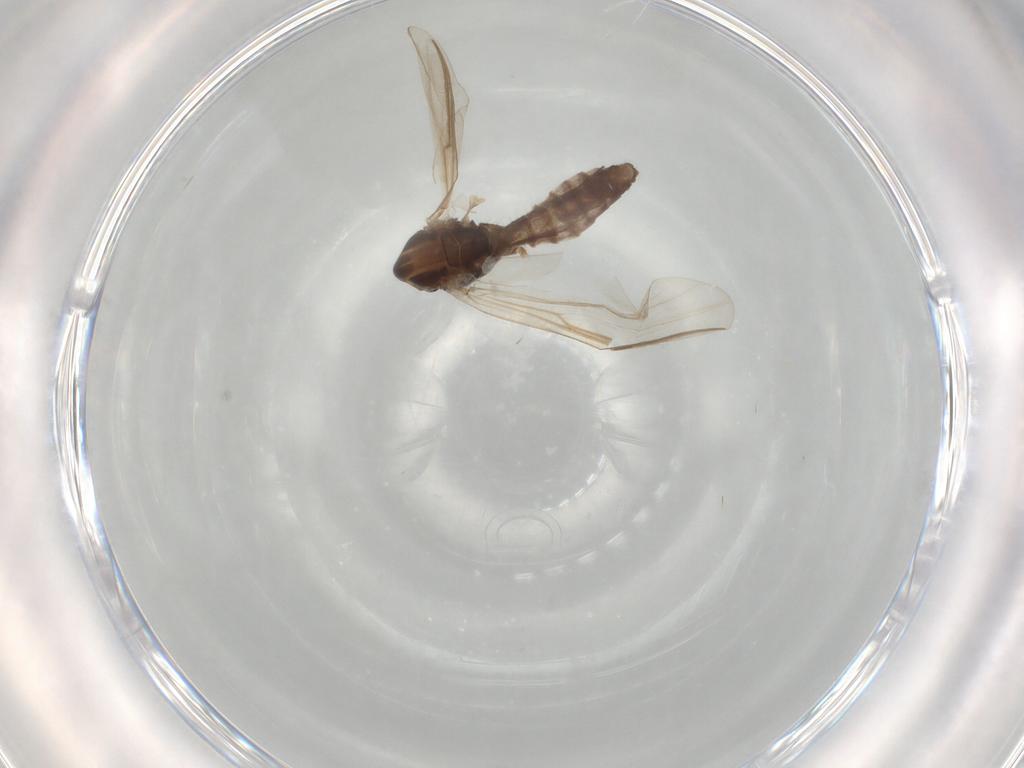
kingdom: Animalia
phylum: Arthropoda
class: Insecta
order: Diptera
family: Chironomidae
